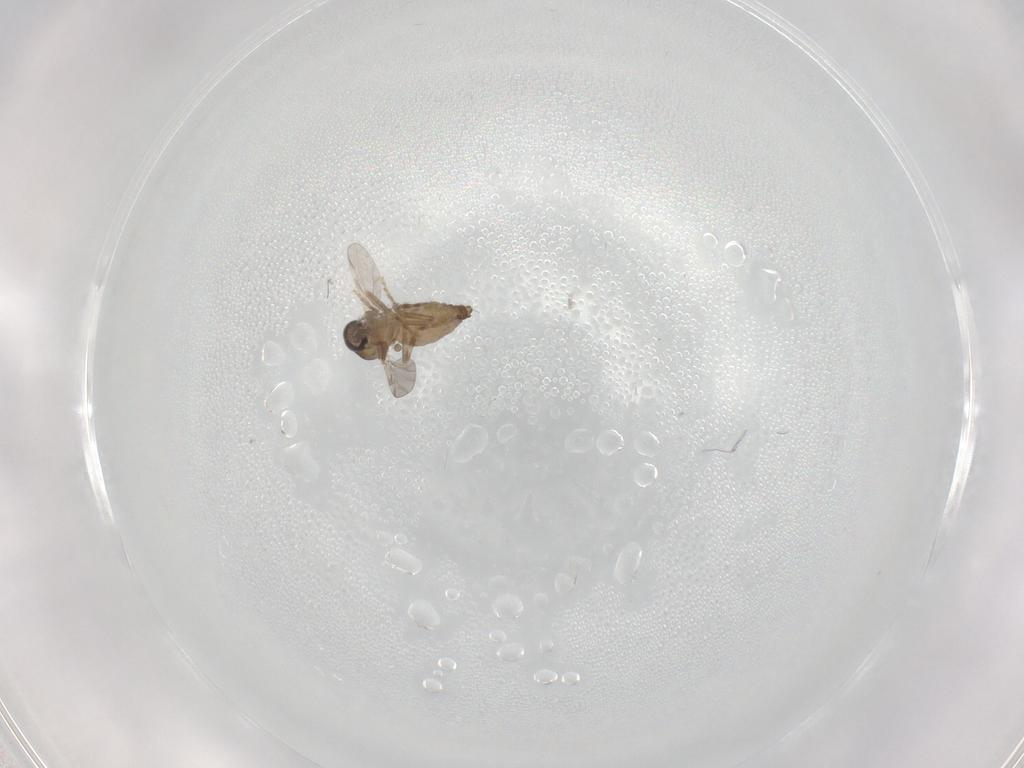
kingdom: Animalia
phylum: Arthropoda
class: Insecta
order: Diptera
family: Ceratopogonidae
